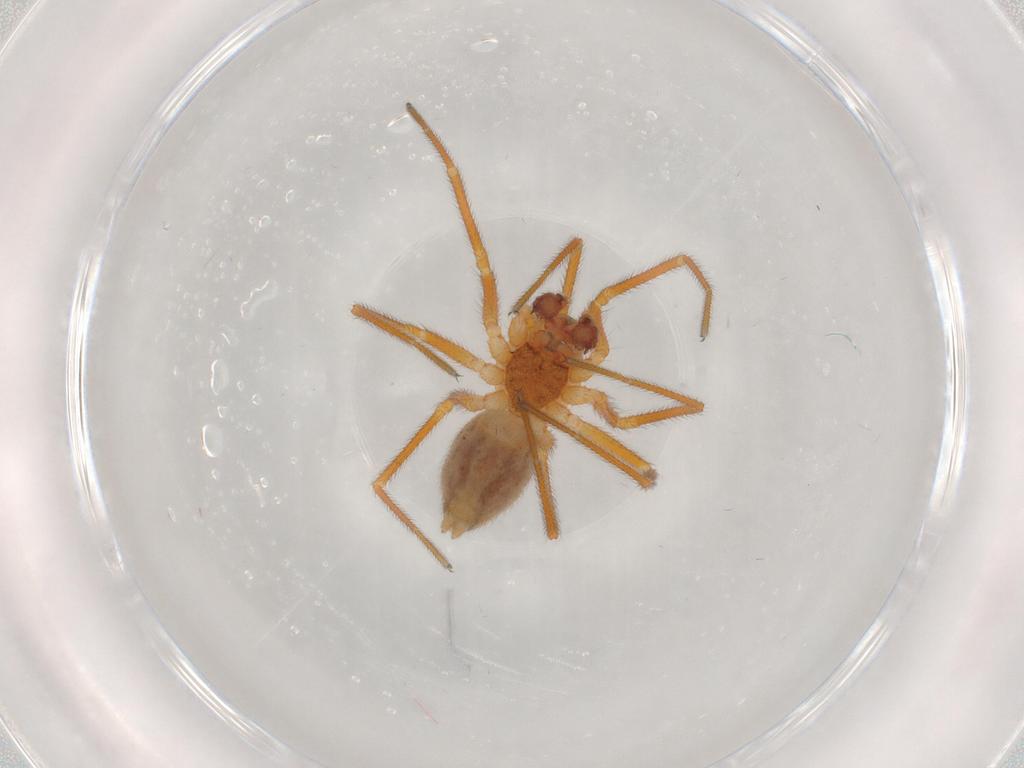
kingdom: Animalia
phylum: Arthropoda
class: Arachnida
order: Araneae
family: Linyphiidae
